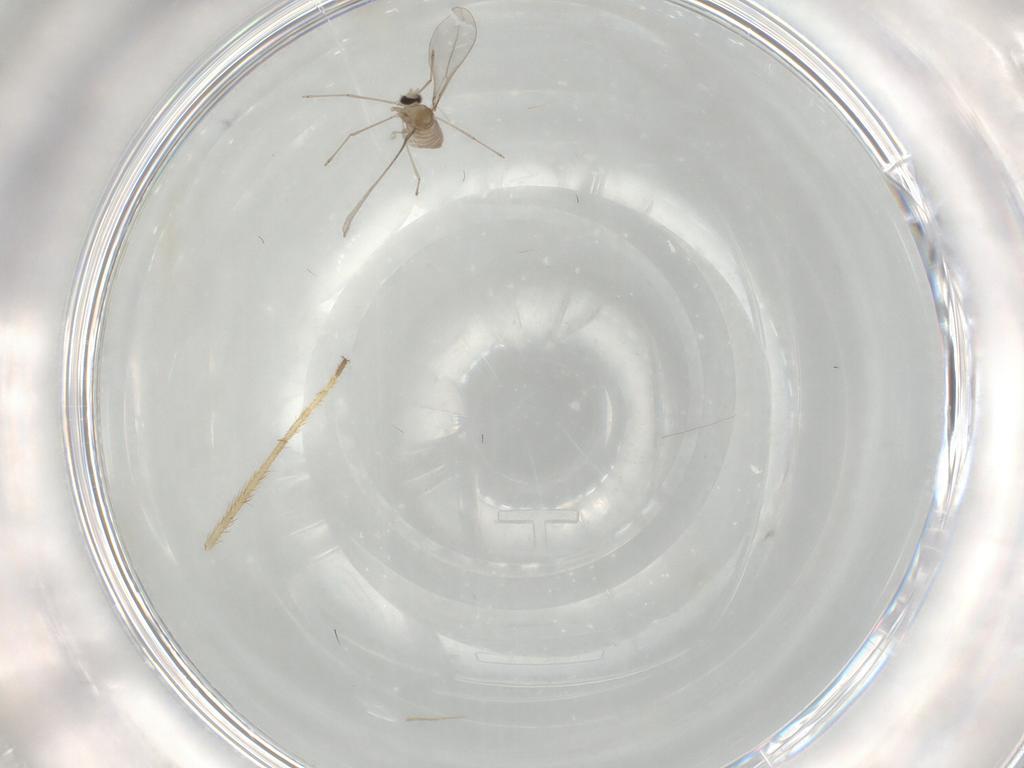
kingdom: Animalia
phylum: Arthropoda
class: Insecta
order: Diptera
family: Cecidomyiidae
